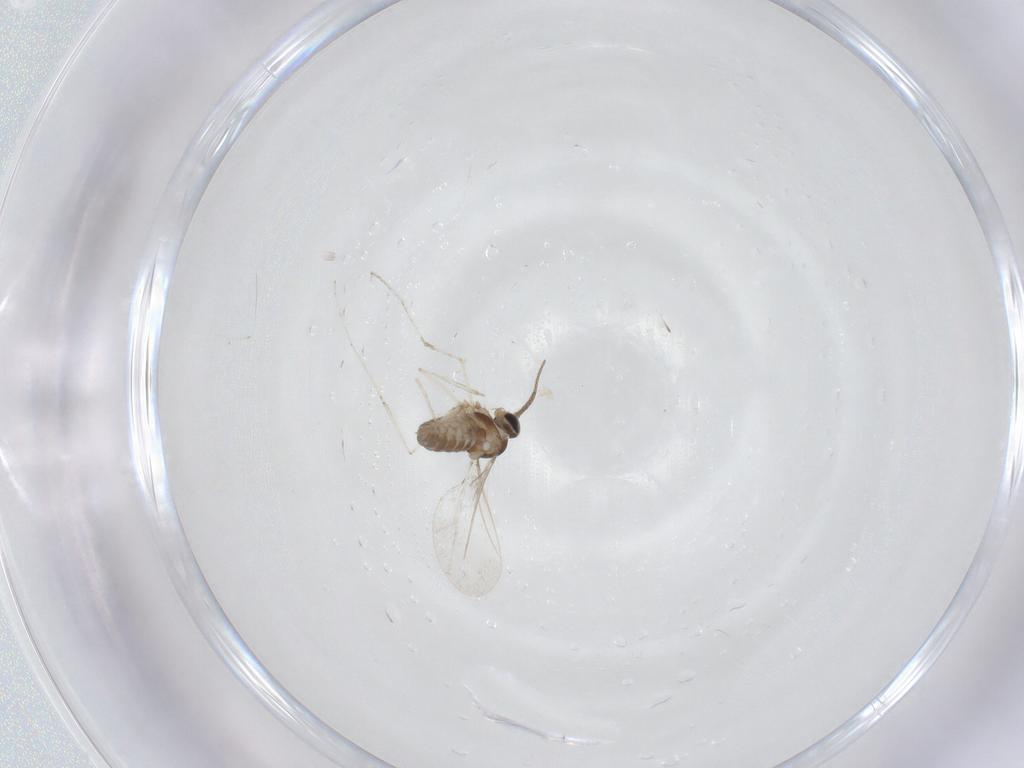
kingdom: Animalia
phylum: Arthropoda
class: Insecta
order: Diptera
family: Cecidomyiidae
